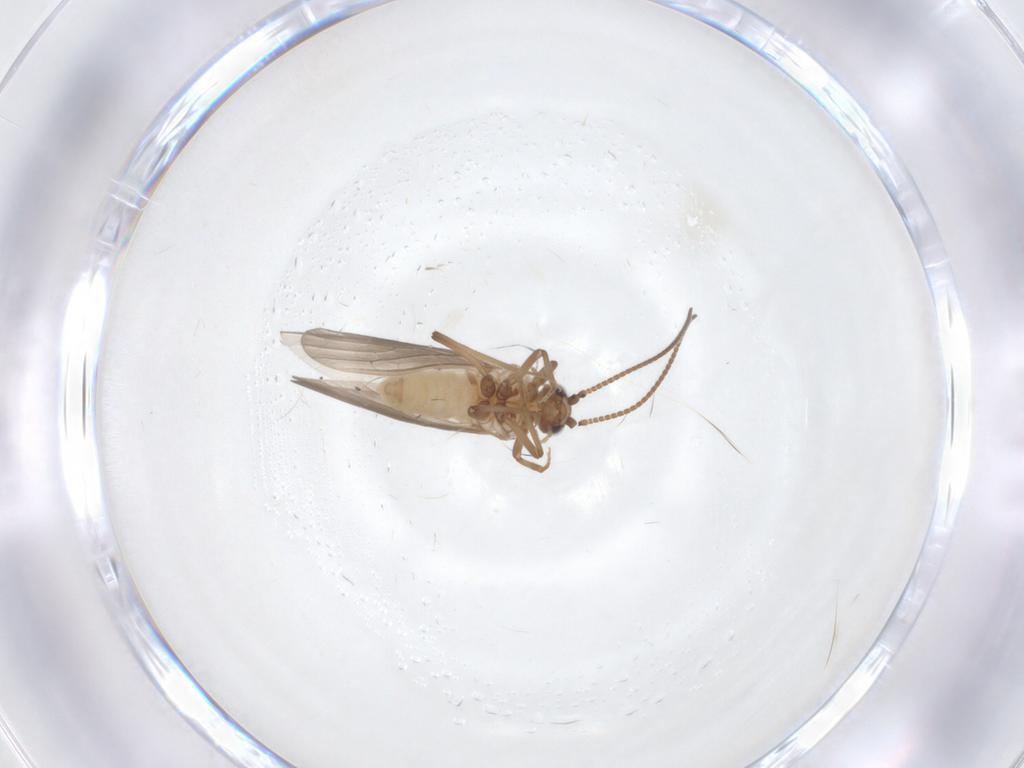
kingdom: Animalia
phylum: Arthropoda
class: Insecta
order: Neuroptera
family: Coniopterygidae
